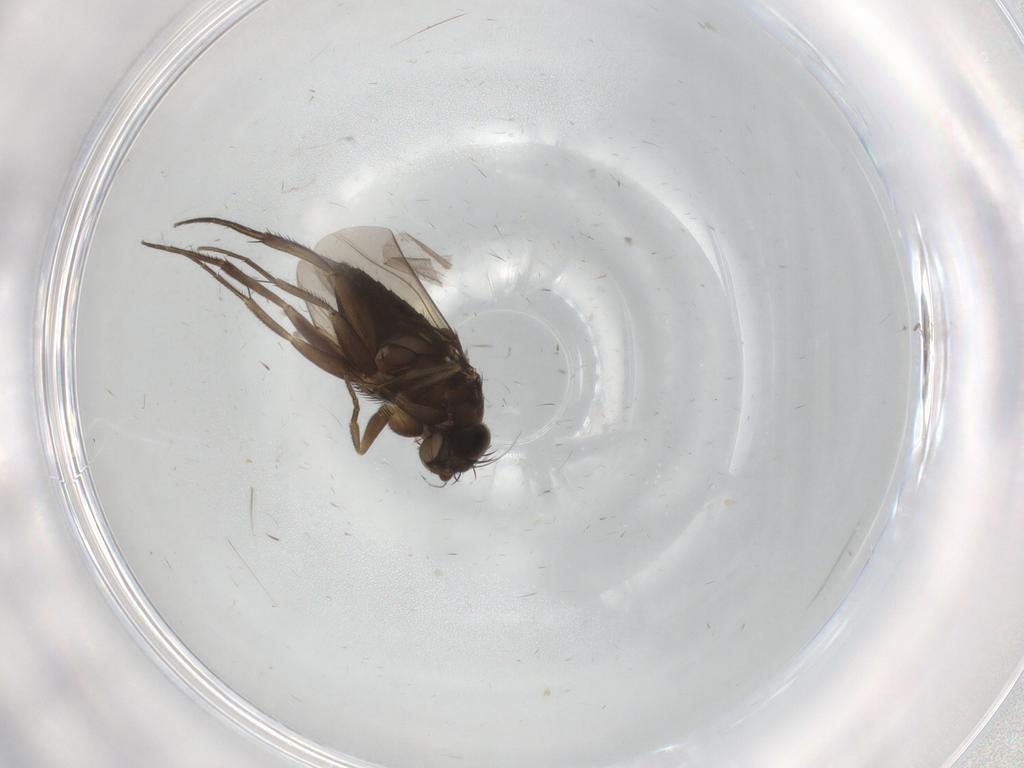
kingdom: Animalia
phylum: Arthropoda
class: Insecta
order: Diptera
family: Phoridae
